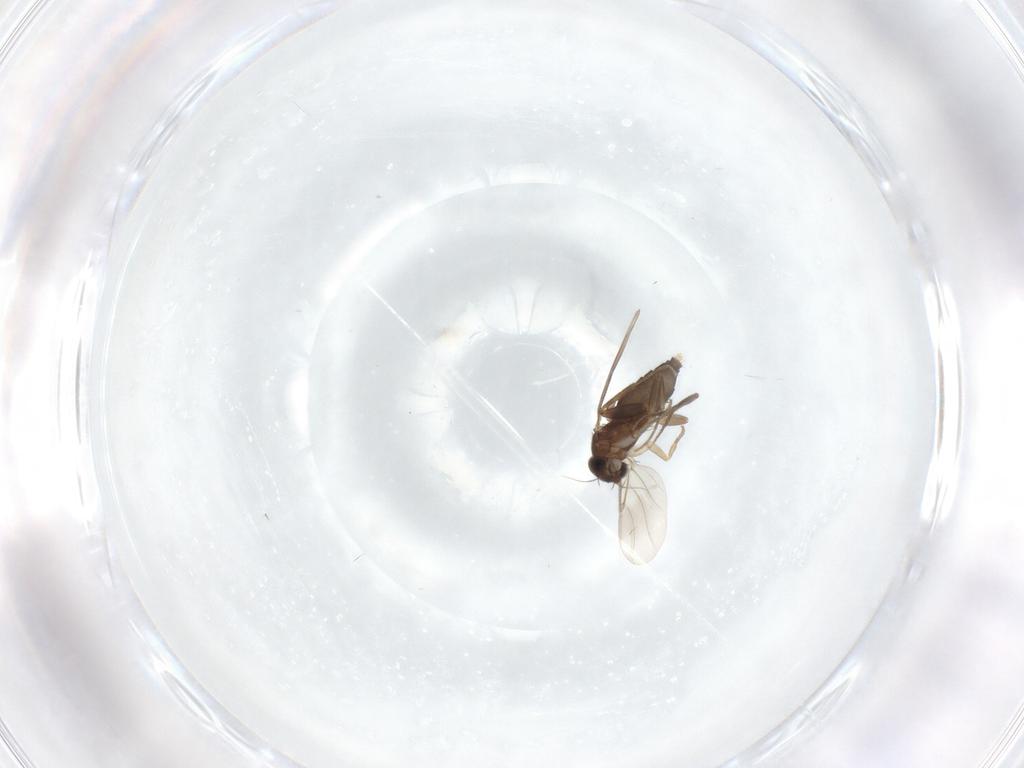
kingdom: Animalia
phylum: Arthropoda
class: Insecta
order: Diptera
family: Phoridae
